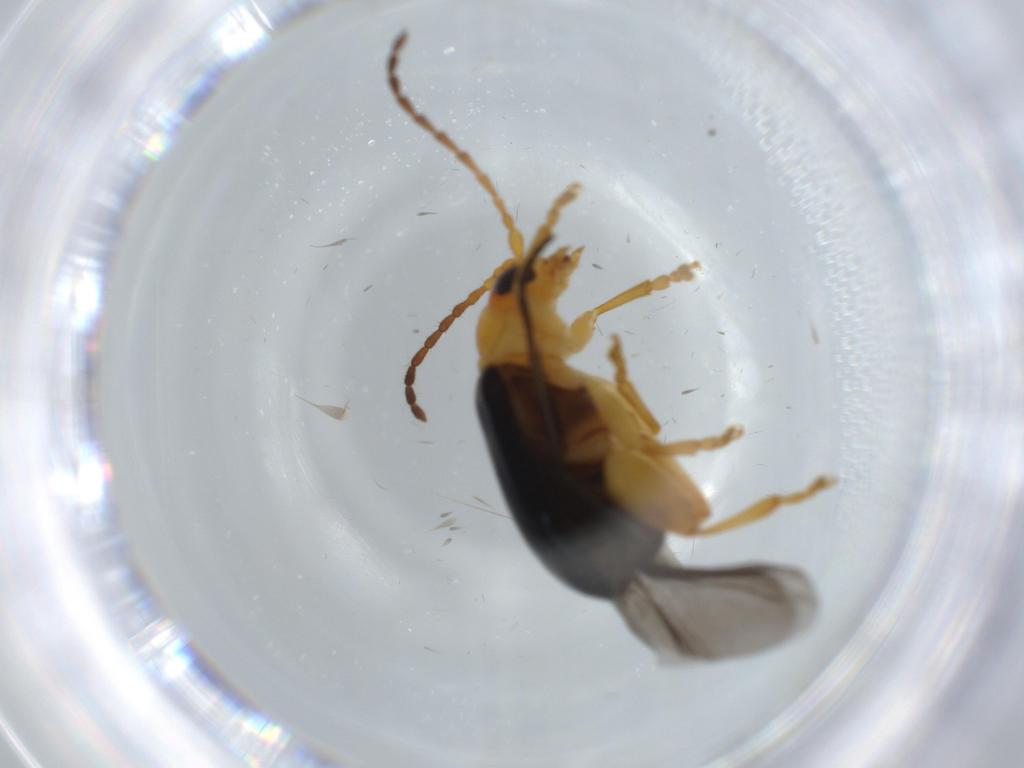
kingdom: Animalia
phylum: Arthropoda
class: Insecta
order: Coleoptera
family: Chrysomelidae
